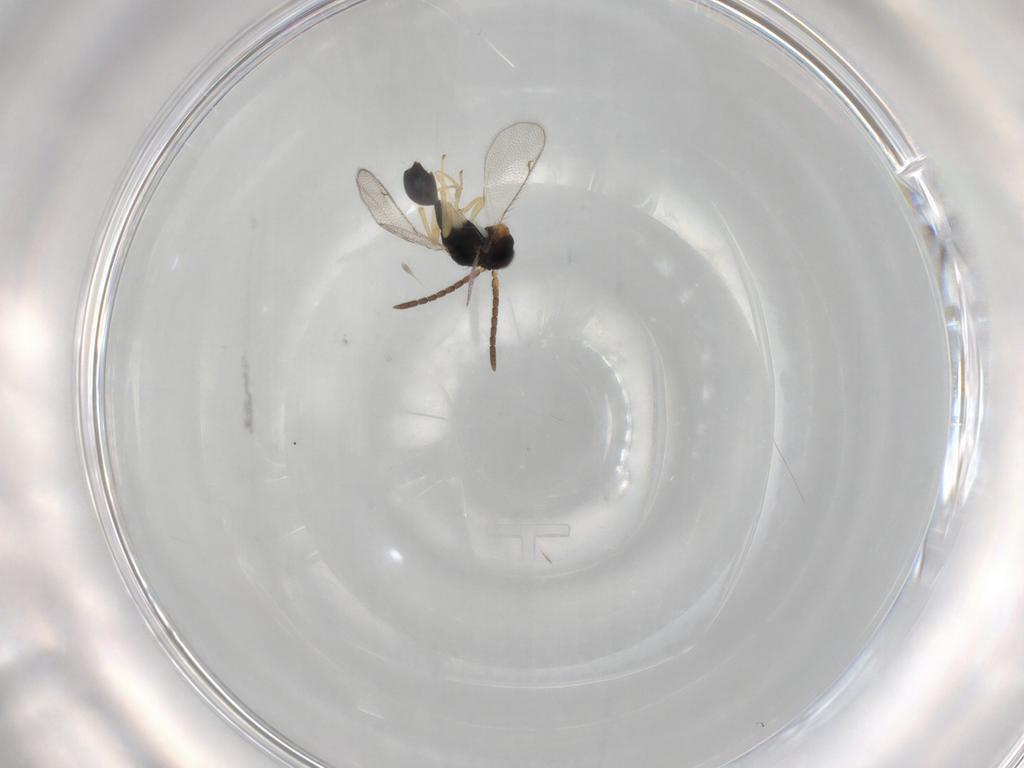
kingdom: Animalia
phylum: Arthropoda
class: Insecta
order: Hymenoptera
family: Diparidae
